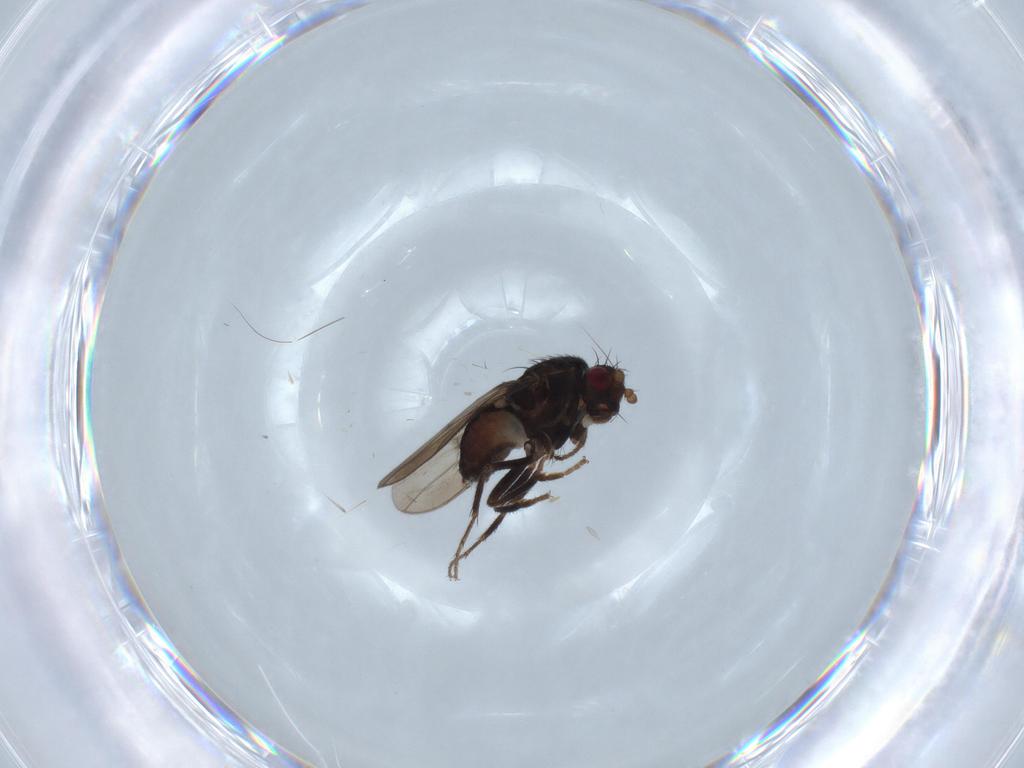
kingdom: Animalia
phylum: Arthropoda
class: Insecta
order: Diptera
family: Sphaeroceridae
